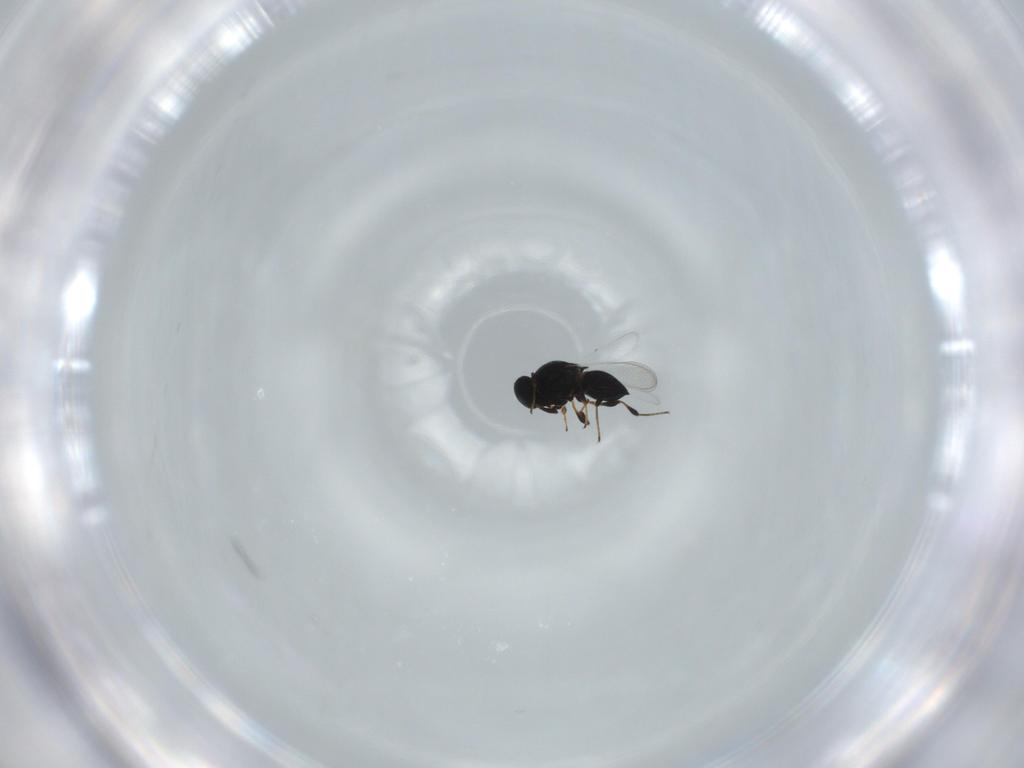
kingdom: Animalia
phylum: Arthropoda
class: Insecta
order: Hymenoptera
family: Platygastridae
